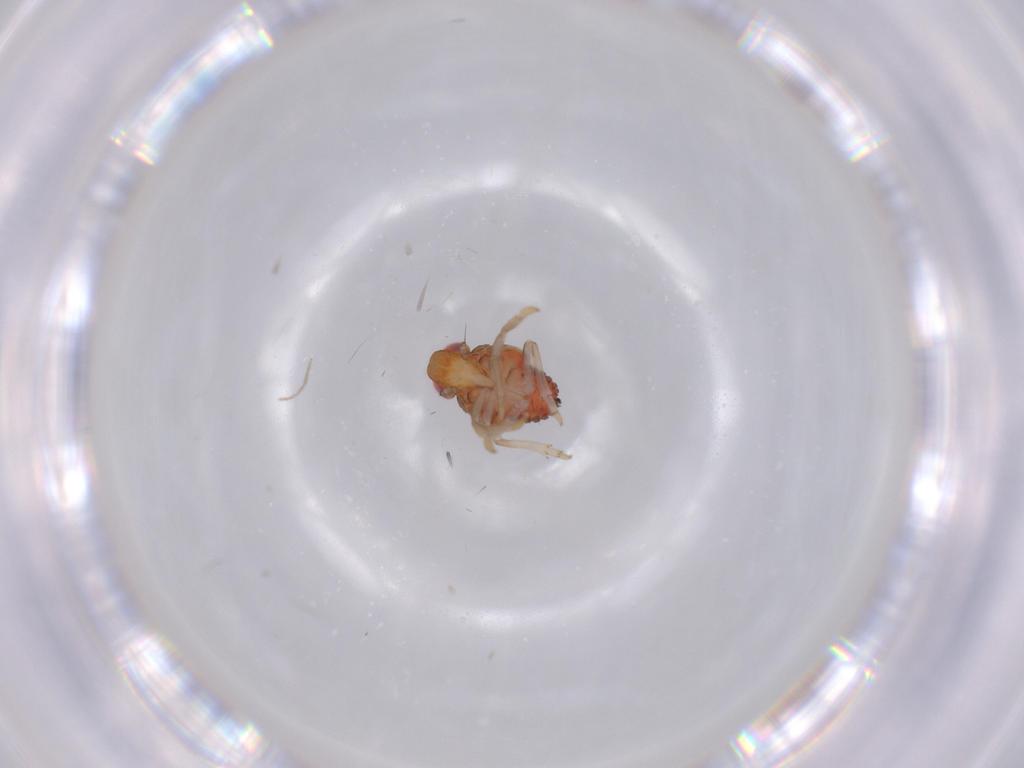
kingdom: Animalia
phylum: Arthropoda
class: Insecta
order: Hemiptera
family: Issidae
